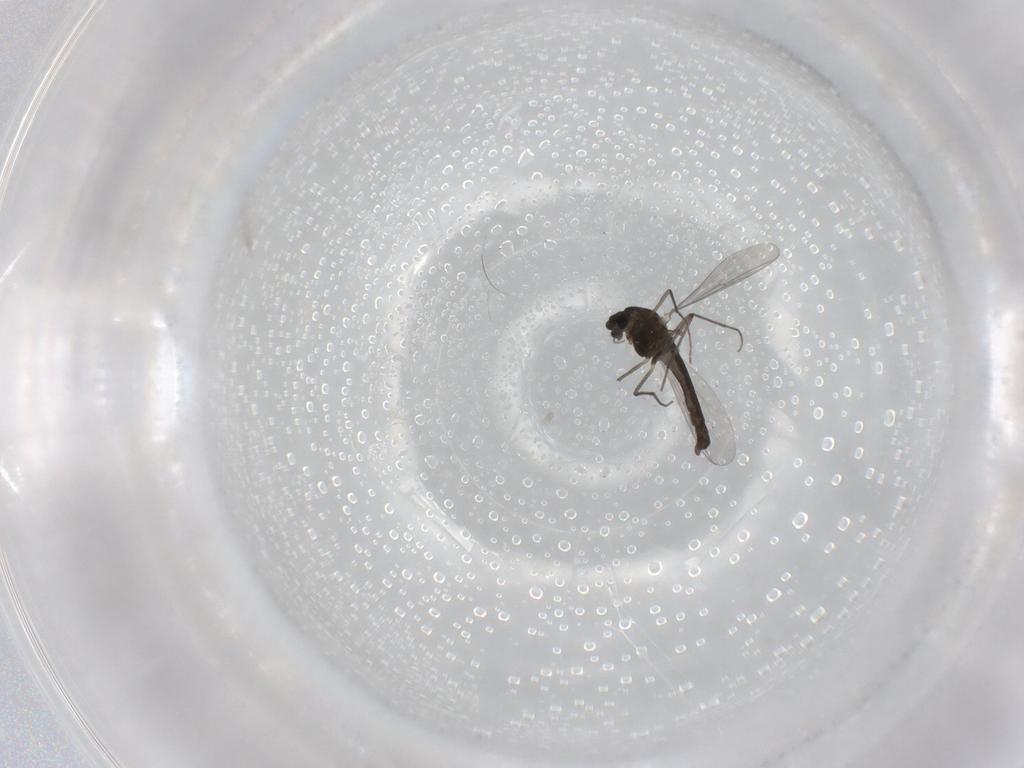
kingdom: Animalia
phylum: Arthropoda
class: Insecta
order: Diptera
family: Chironomidae
